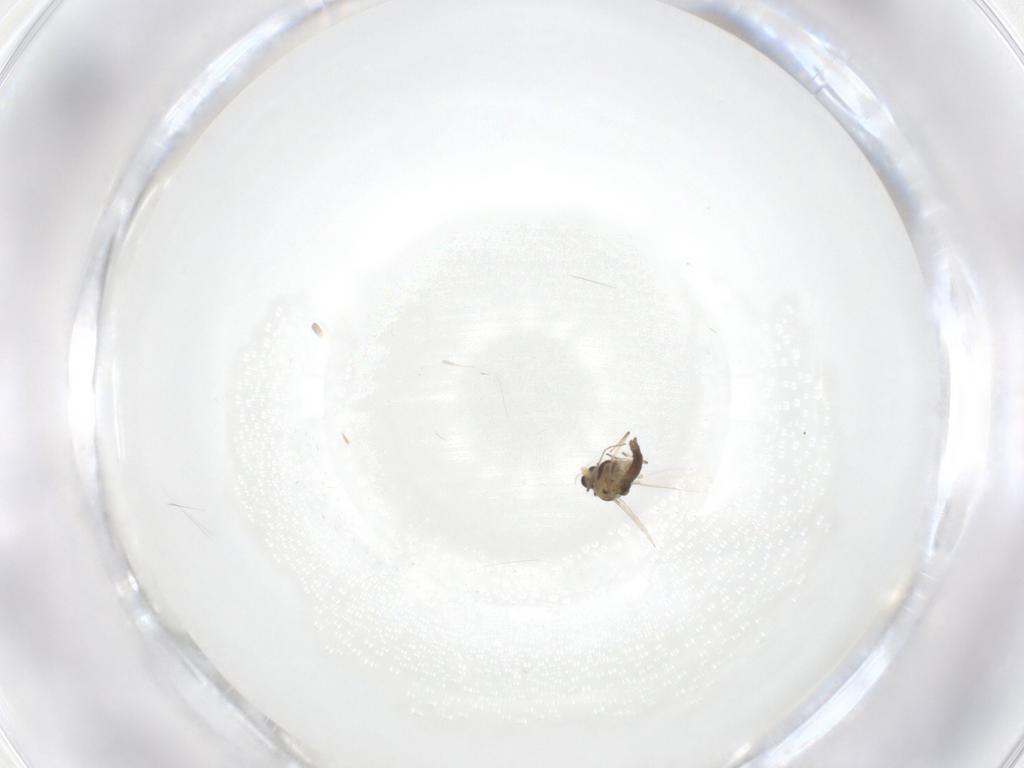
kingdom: Animalia
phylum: Arthropoda
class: Insecta
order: Diptera
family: Chironomidae
